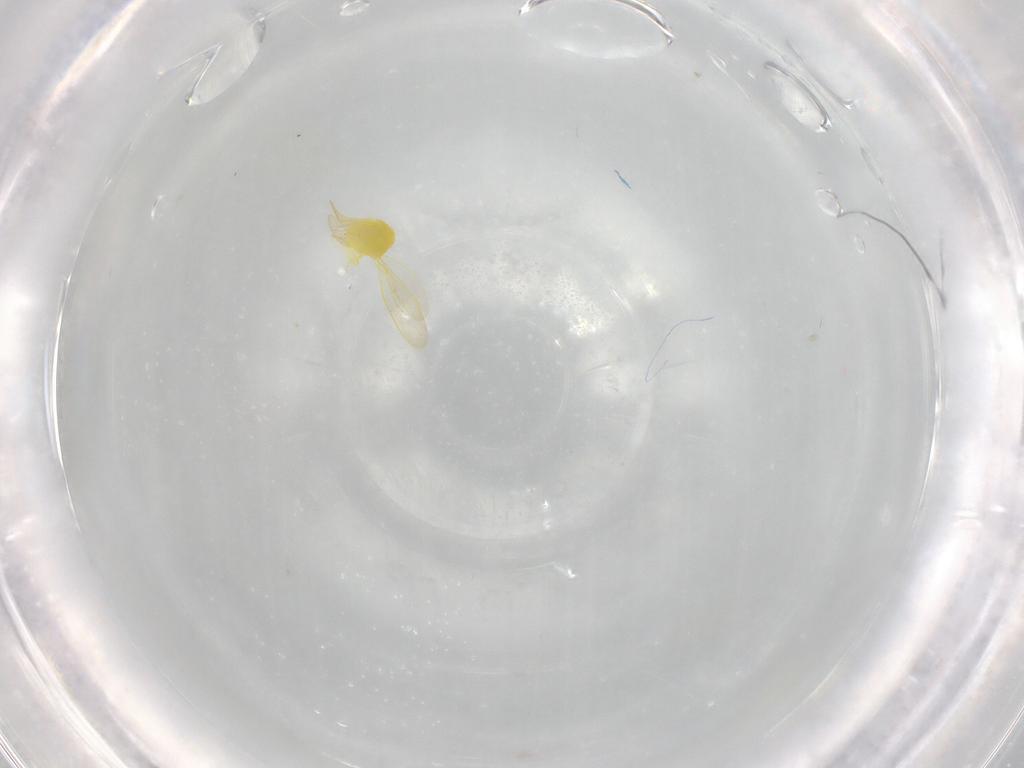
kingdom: Animalia
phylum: Arthropoda
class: Insecta
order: Hemiptera
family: Aleyrodidae
